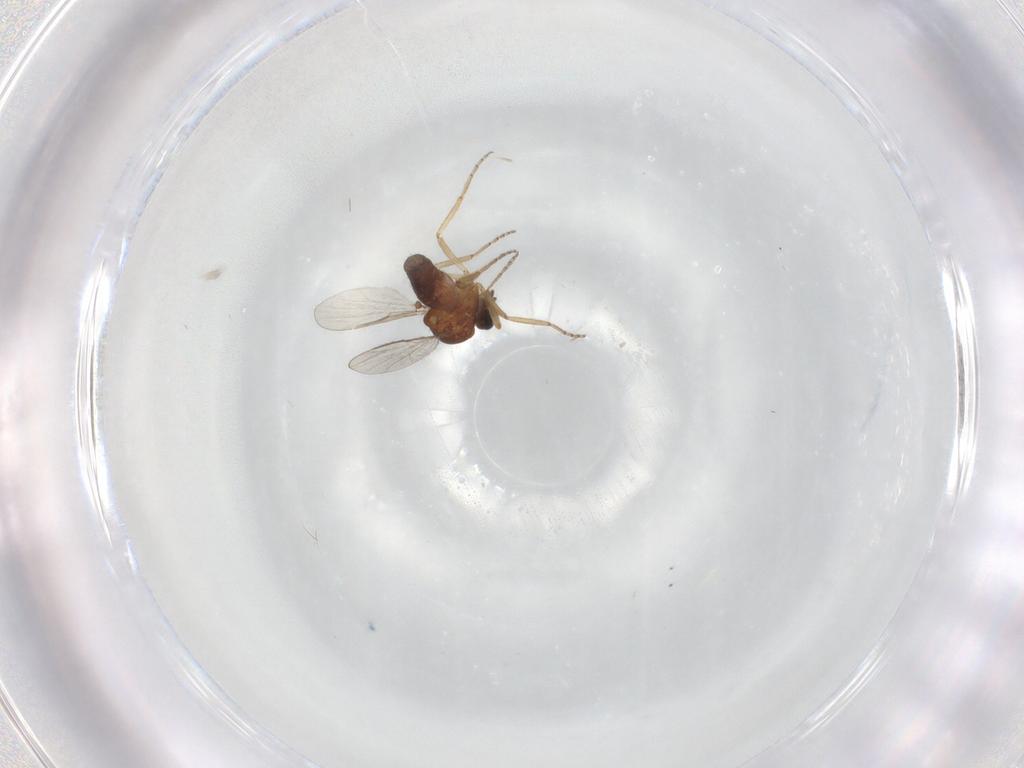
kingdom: Animalia
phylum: Arthropoda
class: Insecta
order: Diptera
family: Ceratopogonidae
